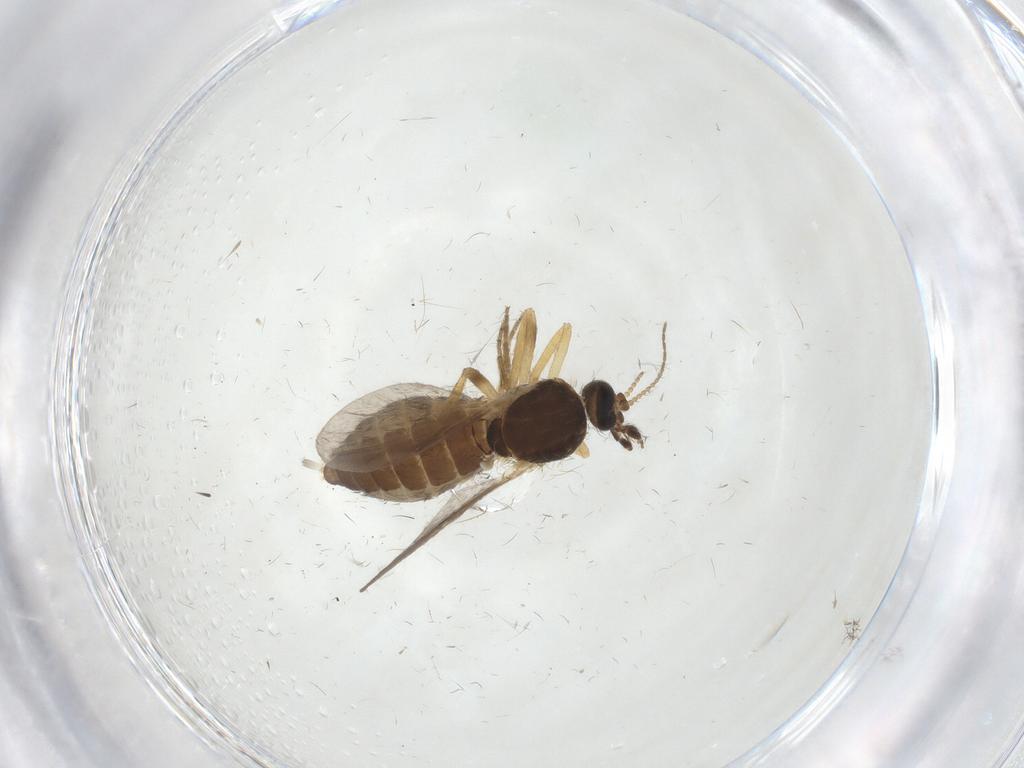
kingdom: Animalia
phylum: Arthropoda
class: Insecta
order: Diptera
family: Ceratopogonidae
